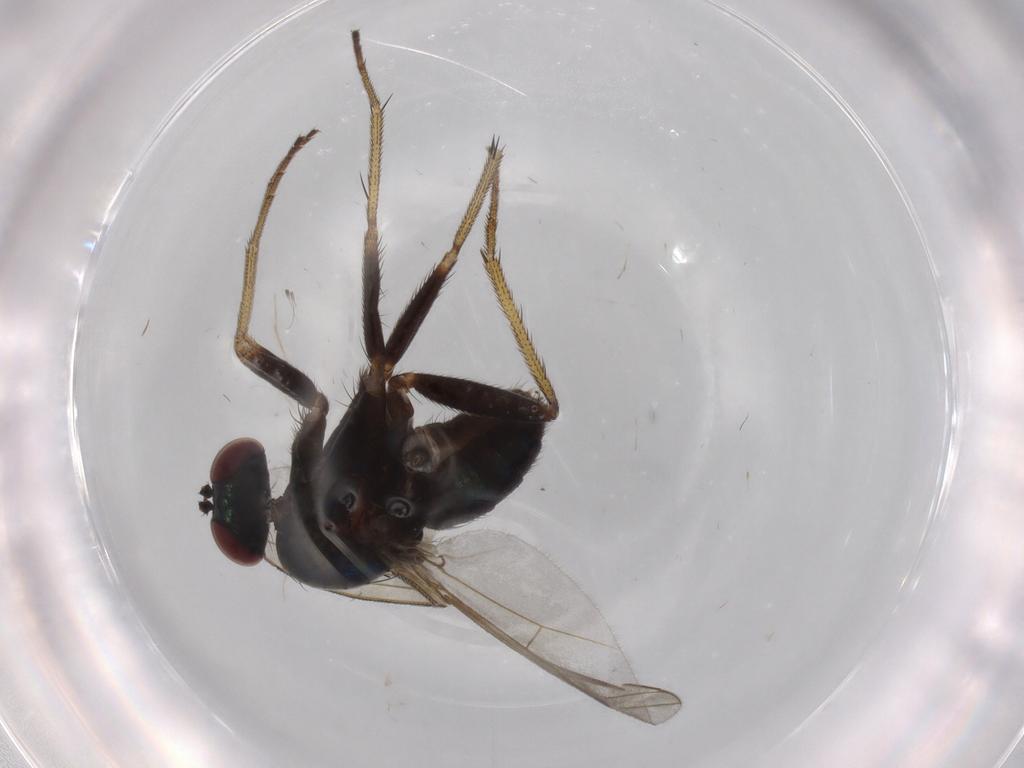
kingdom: Animalia
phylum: Arthropoda
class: Insecta
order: Diptera
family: Dolichopodidae
